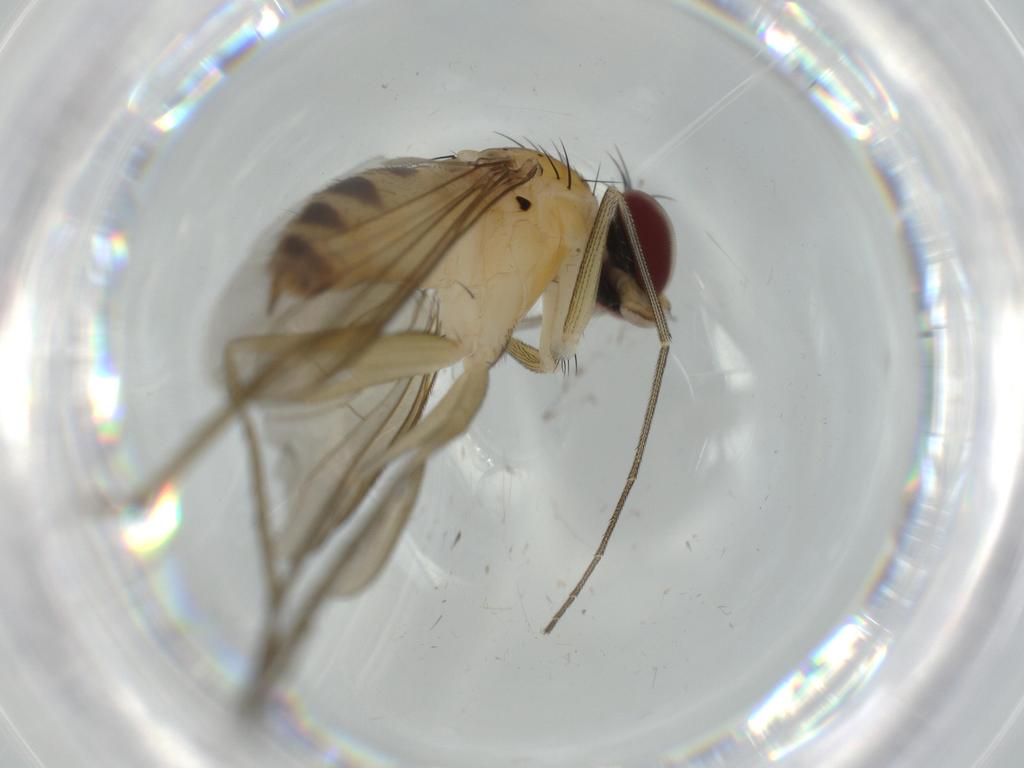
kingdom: Animalia
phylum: Arthropoda
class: Insecta
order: Diptera
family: Dolichopodidae
